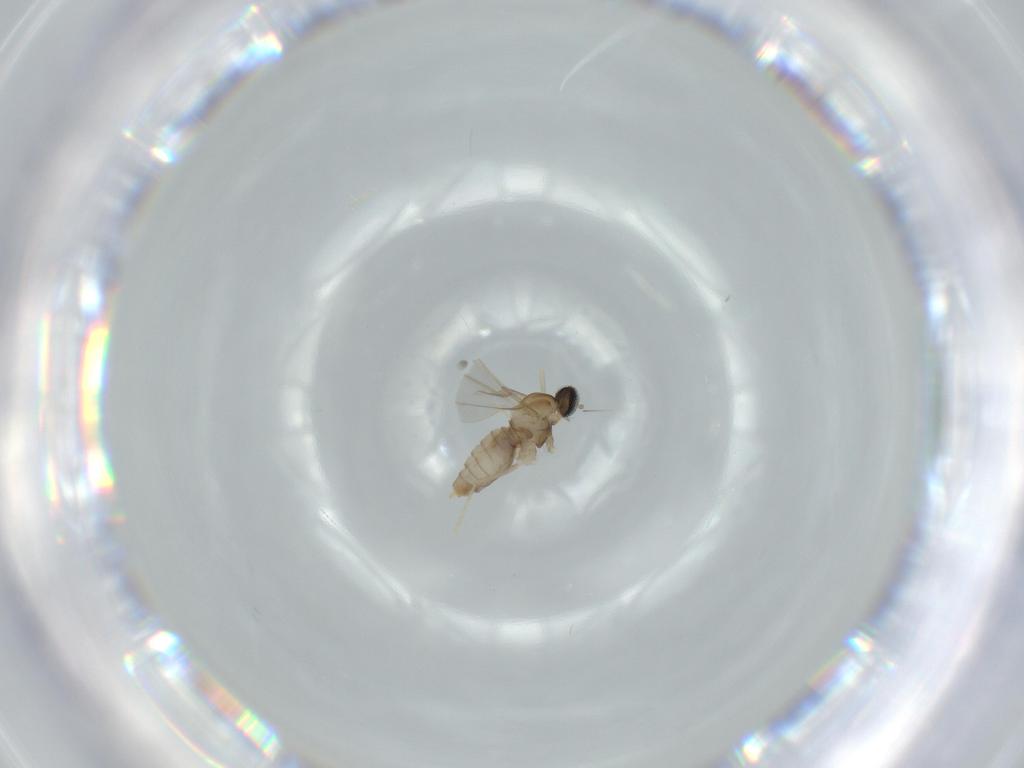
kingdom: Animalia
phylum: Arthropoda
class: Insecta
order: Diptera
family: Cecidomyiidae
